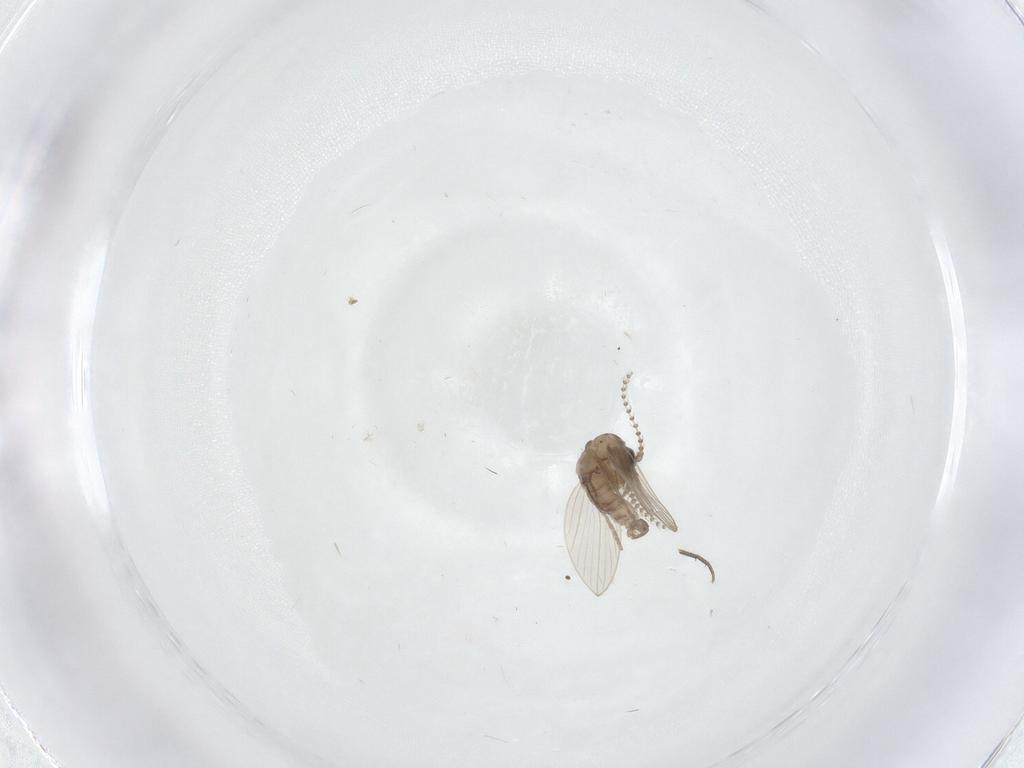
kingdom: Animalia
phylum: Arthropoda
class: Insecta
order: Diptera
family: Psychodidae
